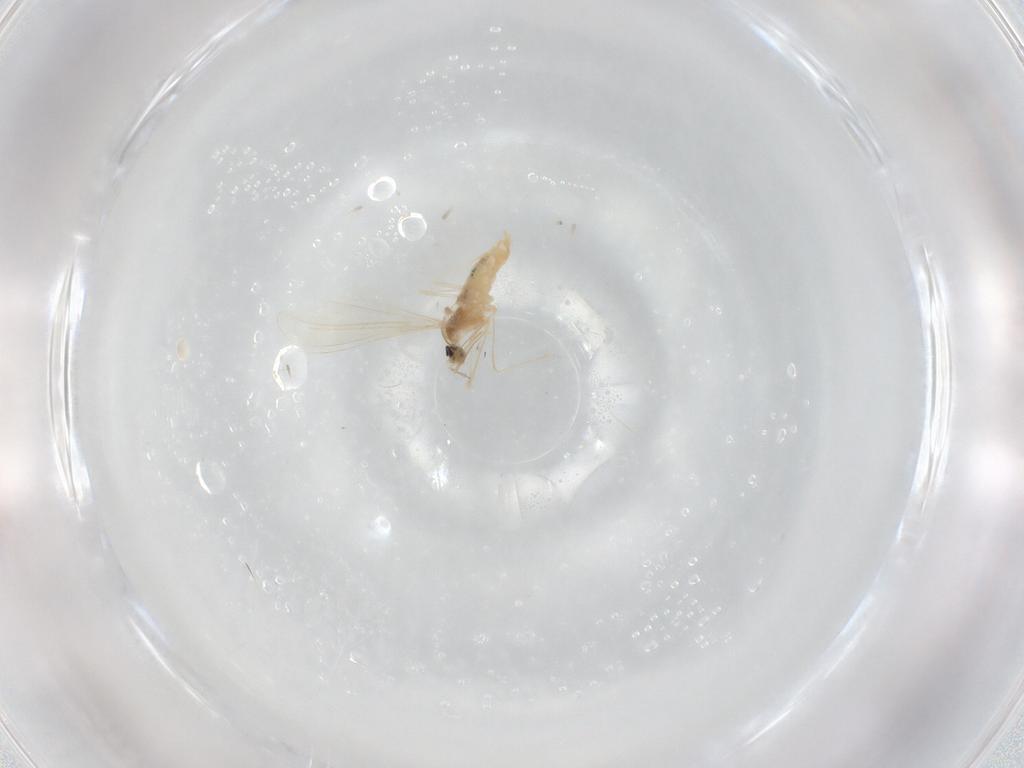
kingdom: Animalia
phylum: Arthropoda
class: Insecta
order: Diptera
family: Cecidomyiidae
